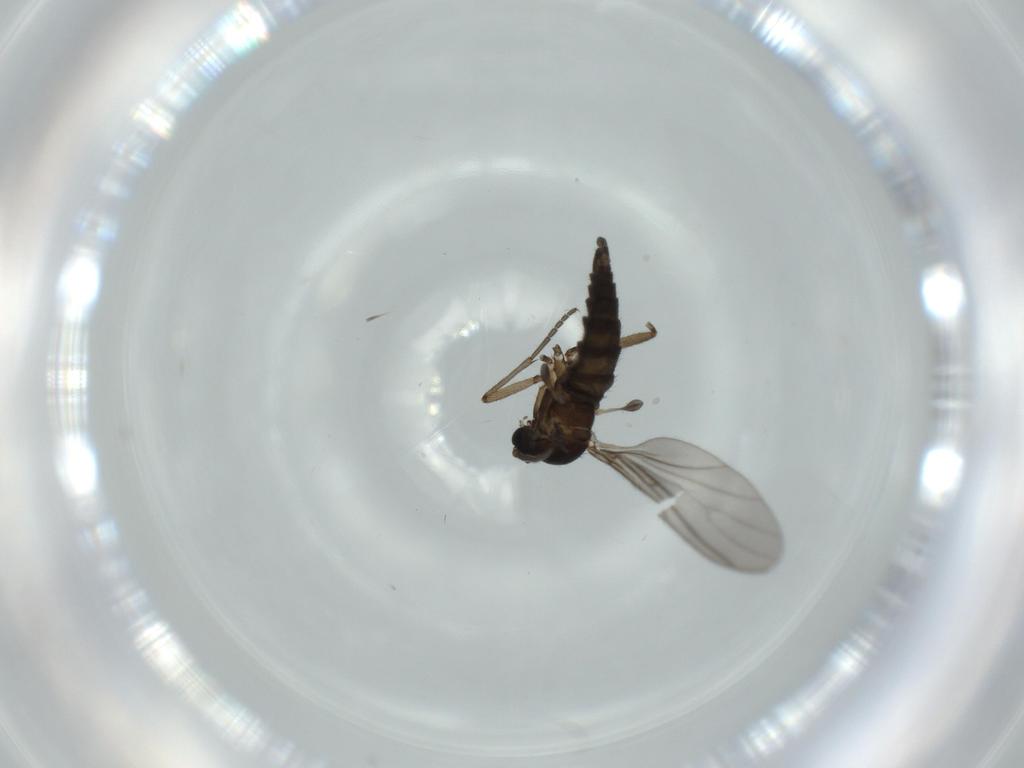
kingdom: Animalia
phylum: Arthropoda
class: Insecta
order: Diptera
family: Sciaridae
